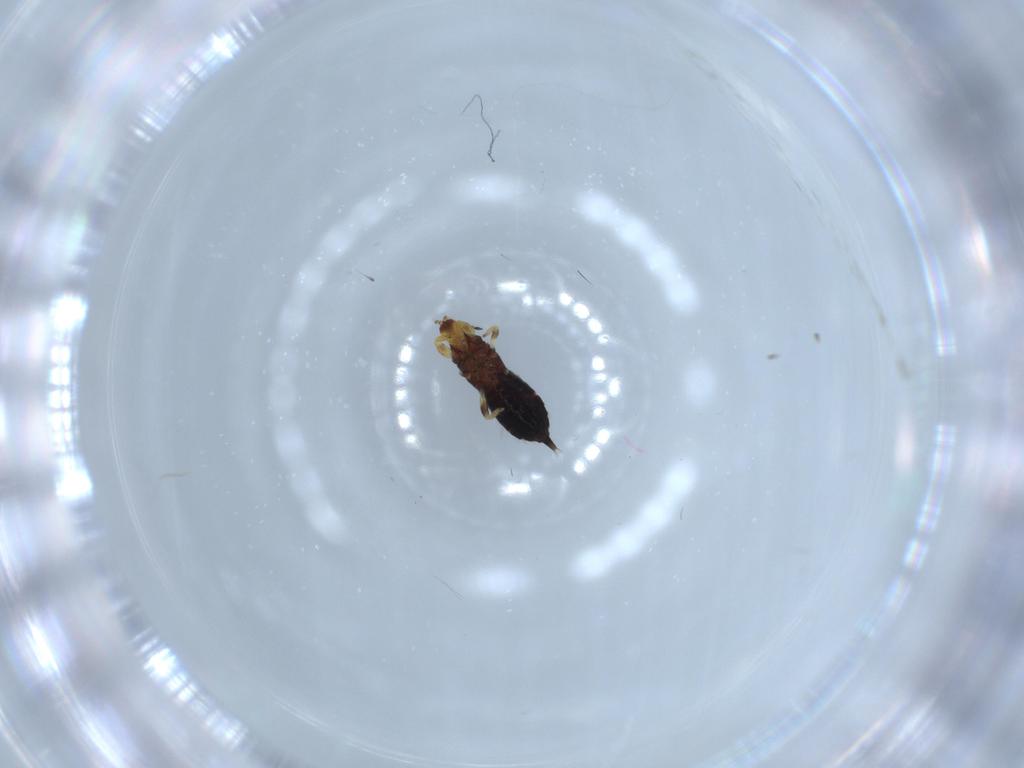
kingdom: Animalia
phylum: Arthropoda
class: Insecta
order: Thysanoptera
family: Phlaeothripidae
